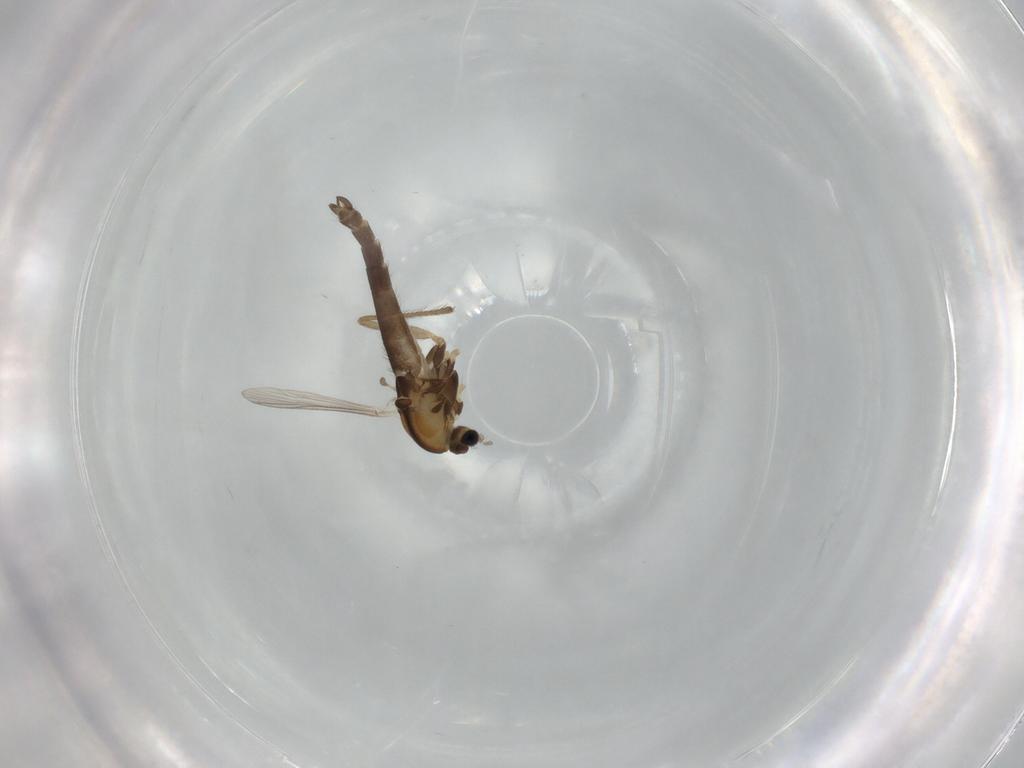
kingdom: Animalia
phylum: Arthropoda
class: Insecta
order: Diptera
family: Chironomidae
